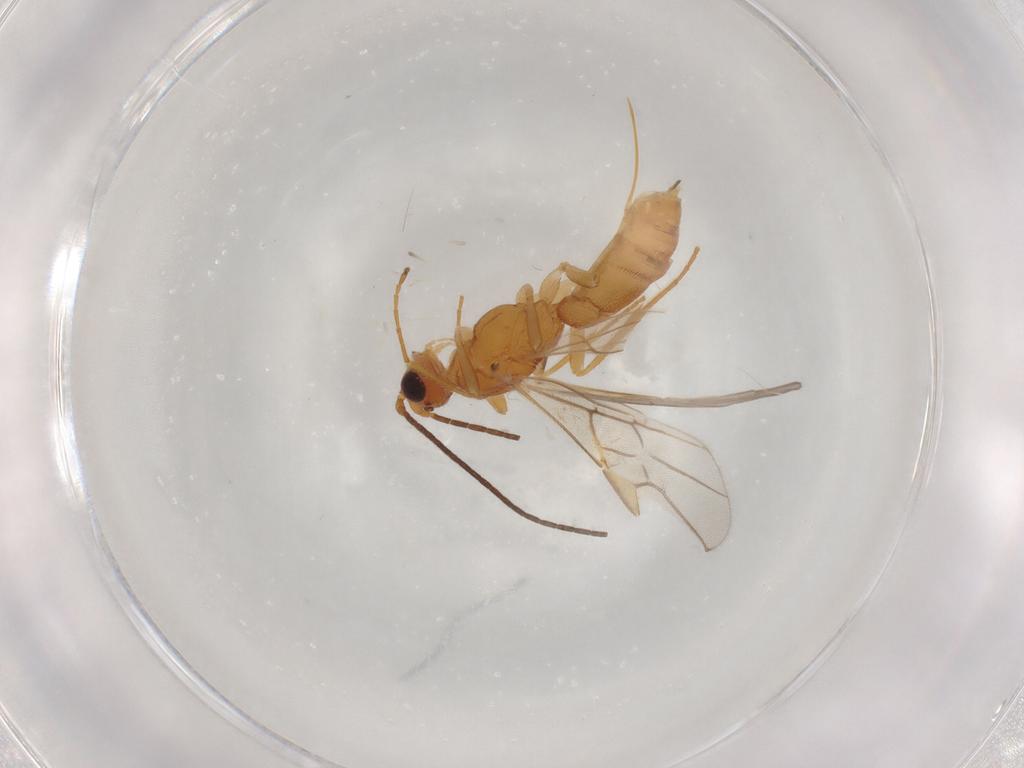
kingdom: Animalia
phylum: Arthropoda
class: Insecta
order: Hymenoptera
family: Braconidae
